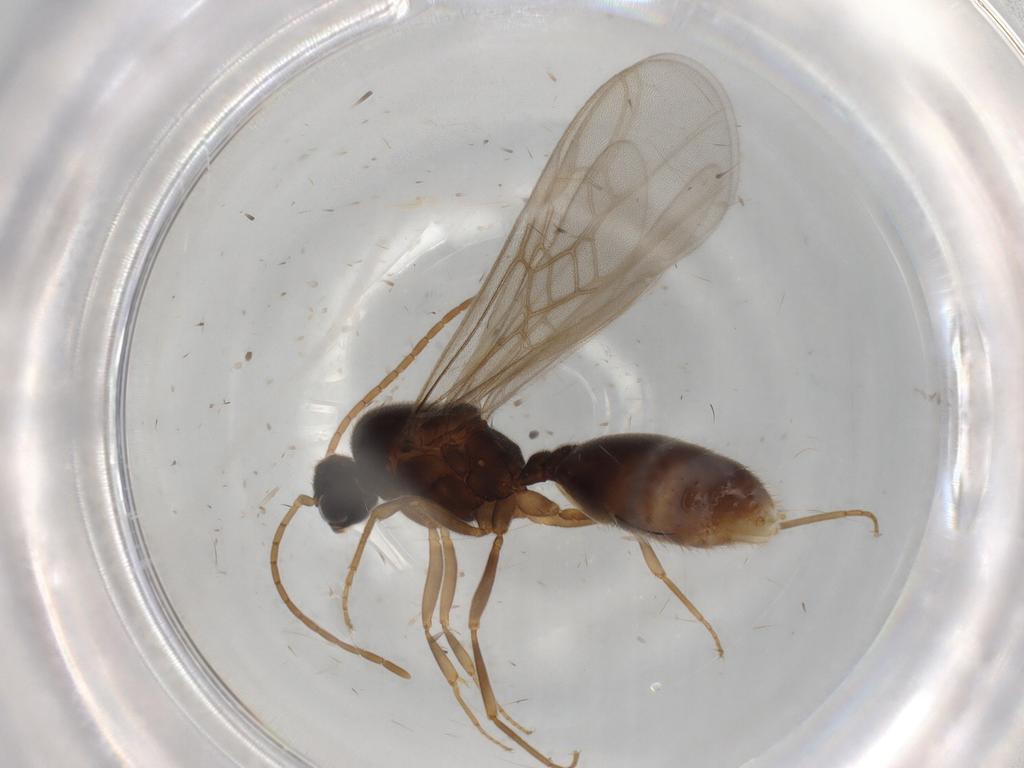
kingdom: Animalia
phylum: Arthropoda
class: Insecta
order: Hymenoptera
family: Formicidae
